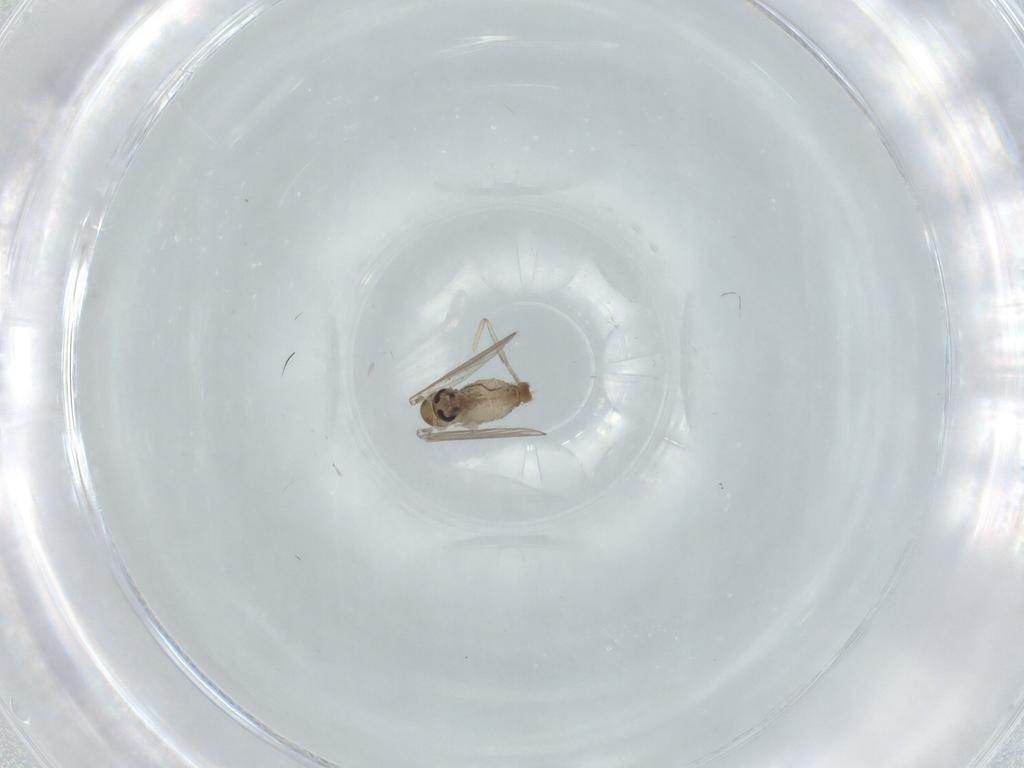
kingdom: Animalia
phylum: Arthropoda
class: Insecta
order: Diptera
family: Psychodidae
